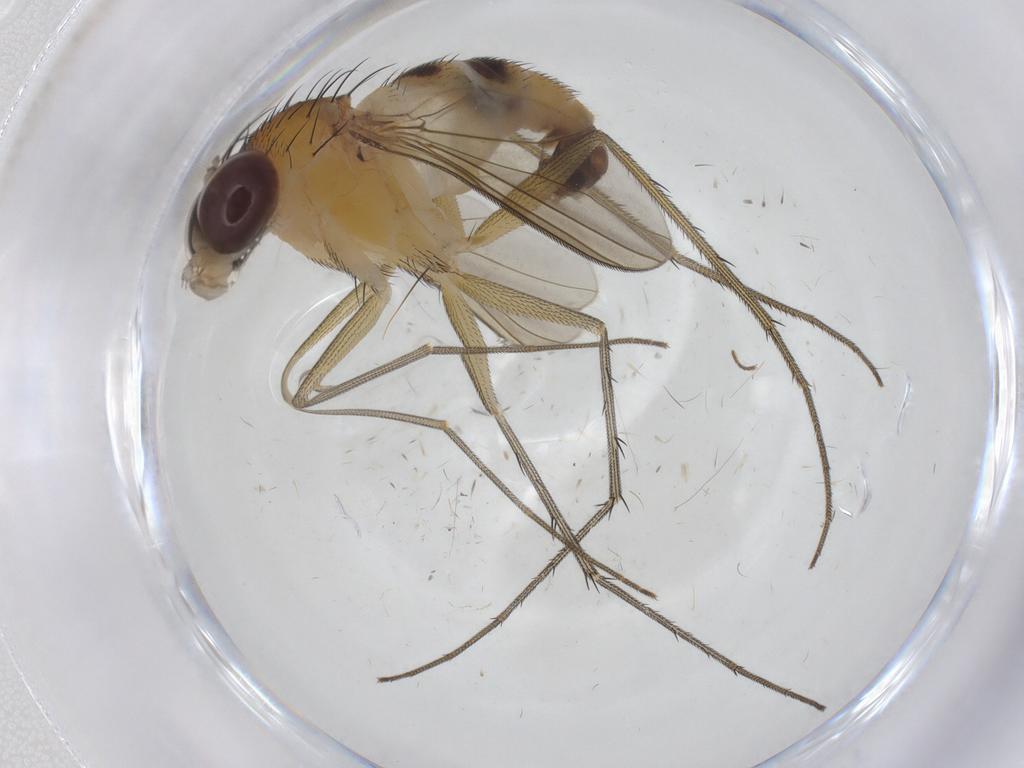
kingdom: Animalia
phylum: Arthropoda
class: Insecta
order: Diptera
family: Dolichopodidae
